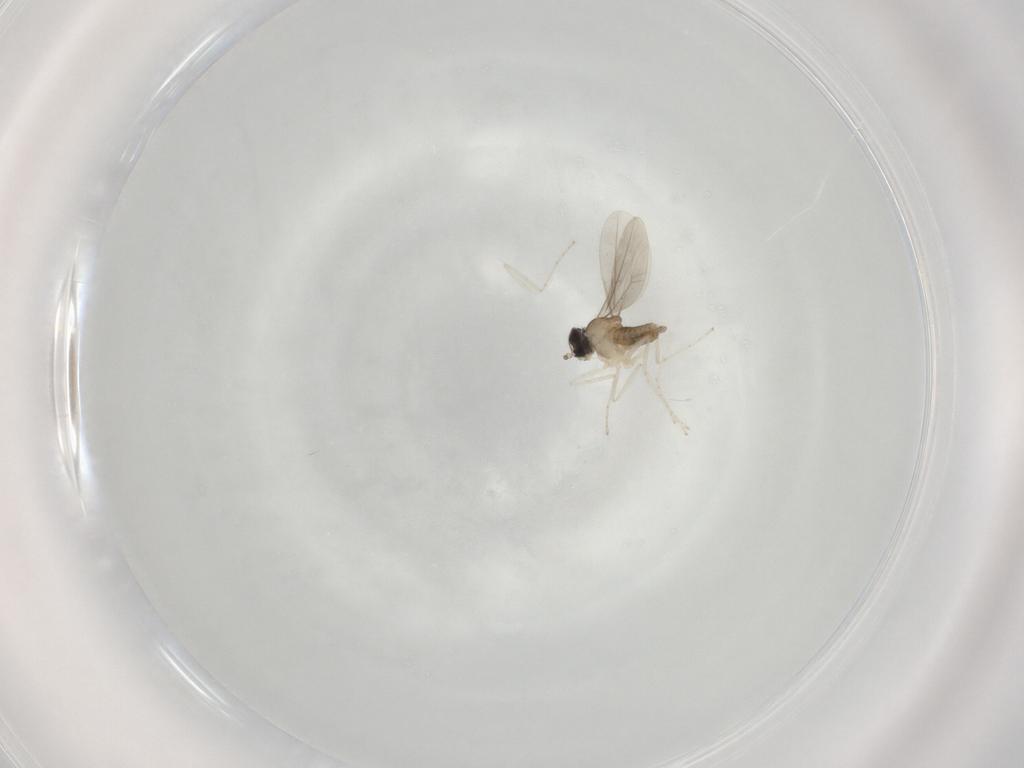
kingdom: Animalia
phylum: Arthropoda
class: Insecta
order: Diptera
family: Cecidomyiidae
